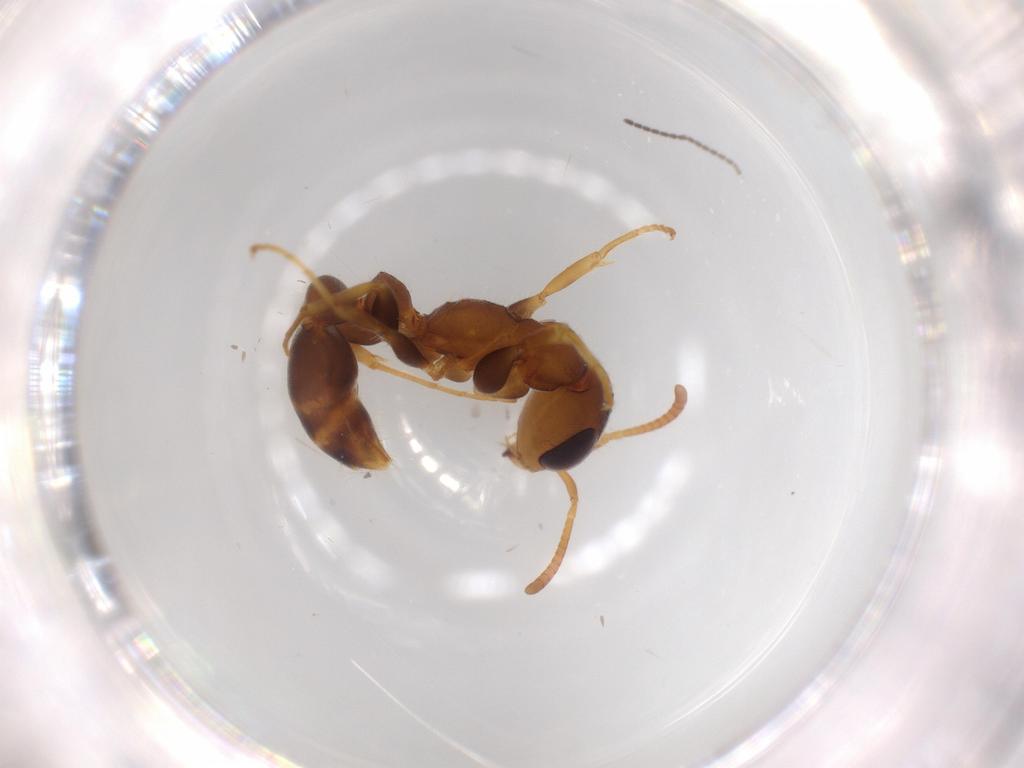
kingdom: Animalia
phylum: Arthropoda
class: Insecta
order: Hymenoptera
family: Formicidae
